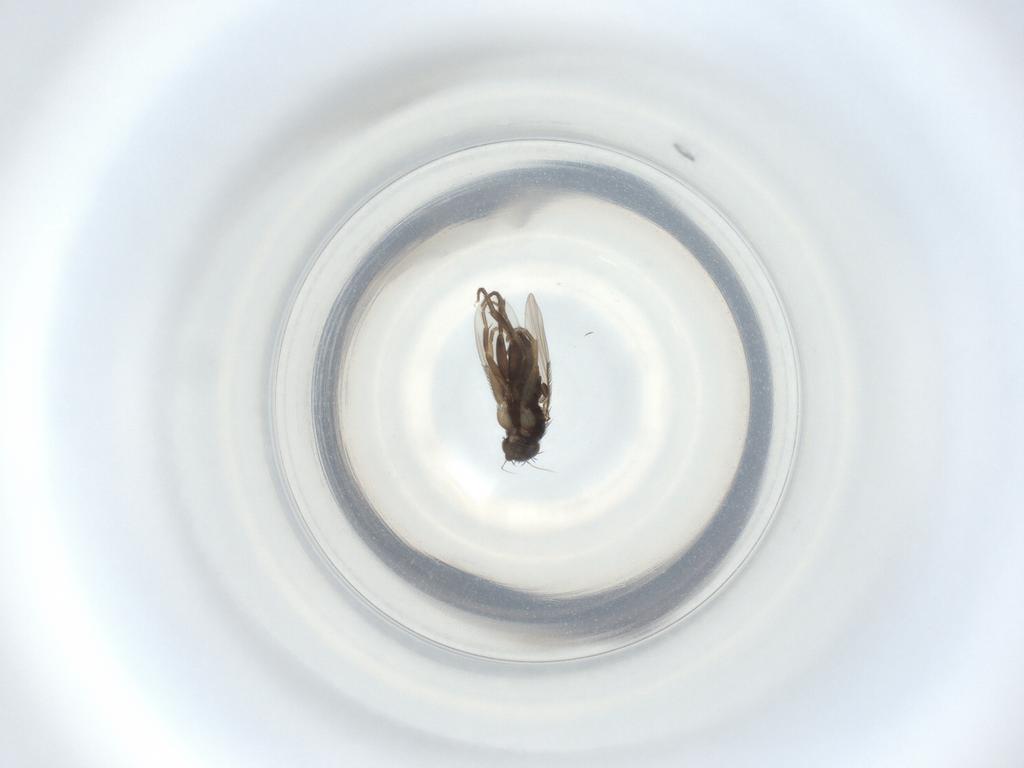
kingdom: Animalia
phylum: Arthropoda
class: Insecta
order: Diptera
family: Phoridae
